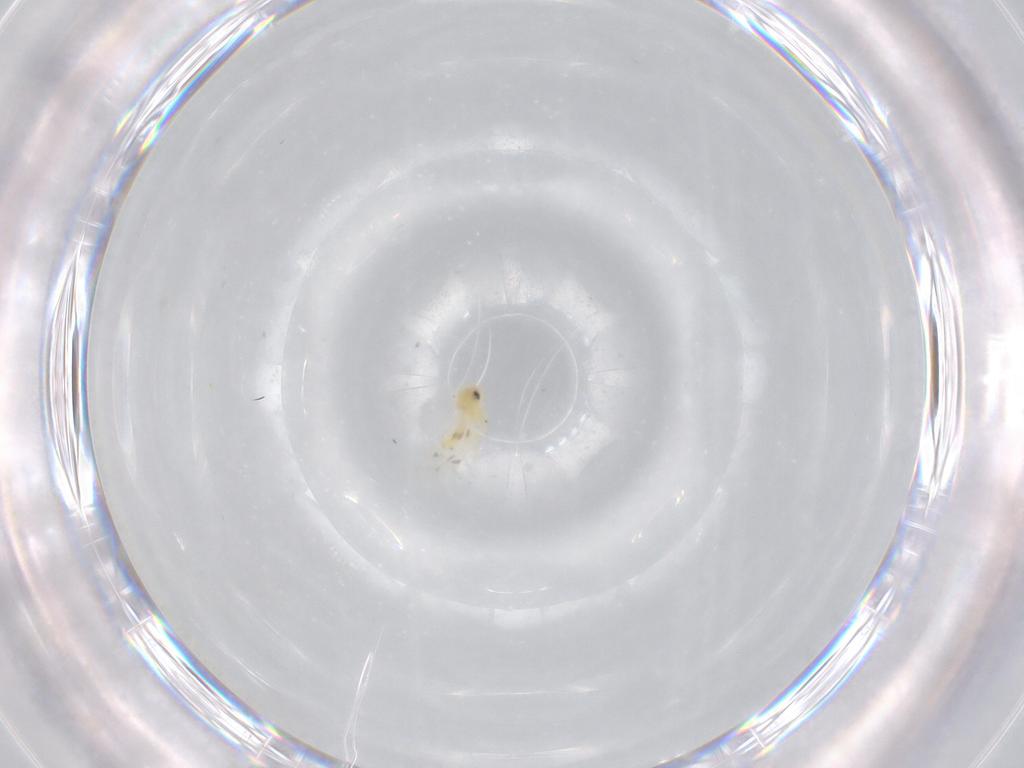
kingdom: Animalia
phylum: Arthropoda
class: Insecta
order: Hemiptera
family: Aleyrodidae
